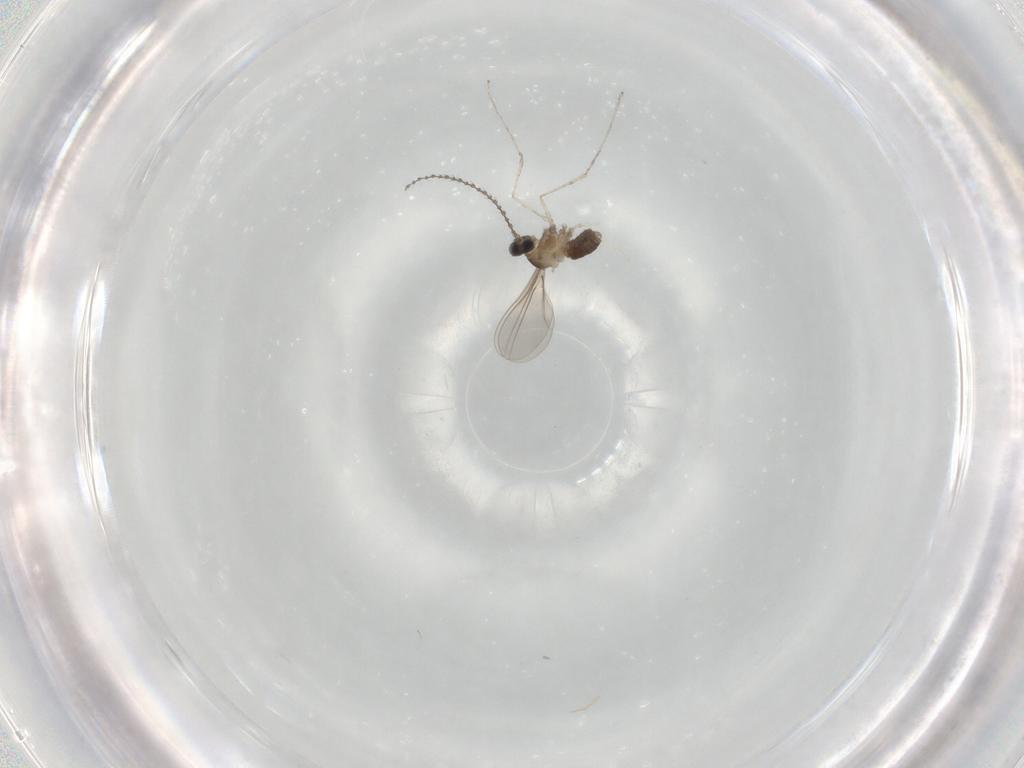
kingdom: Animalia
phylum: Arthropoda
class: Insecta
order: Diptera
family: Cecidomyiidae
